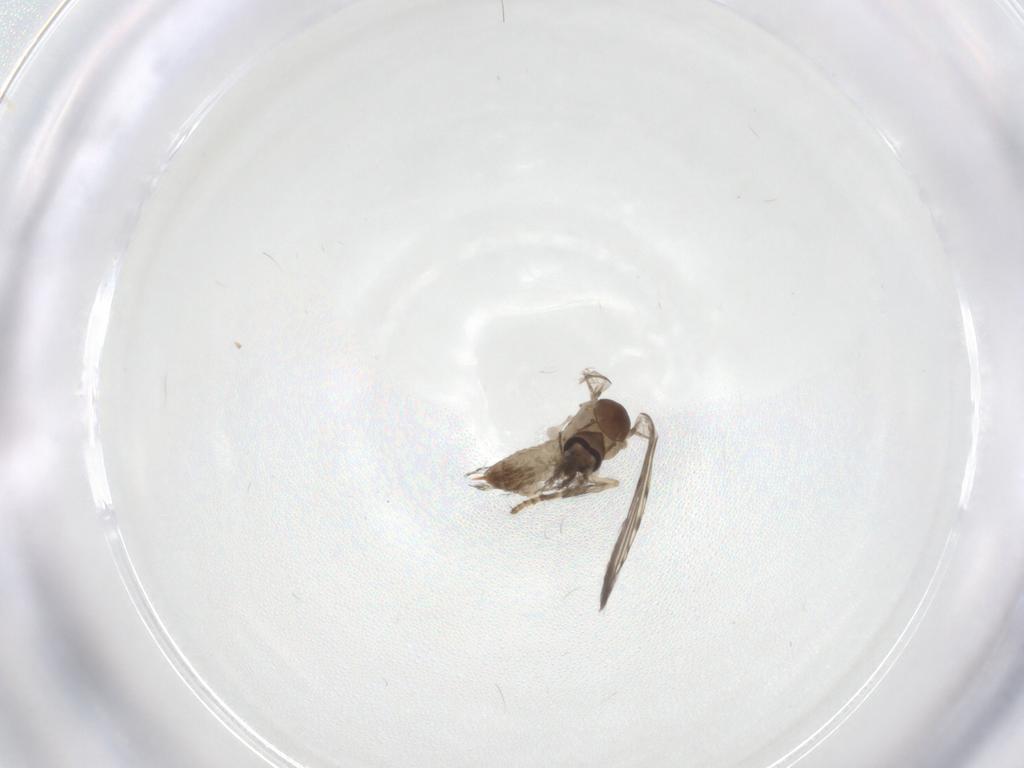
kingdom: Animalia
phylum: Arthropoda
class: Insecta
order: Diptera
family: Psychodidae
